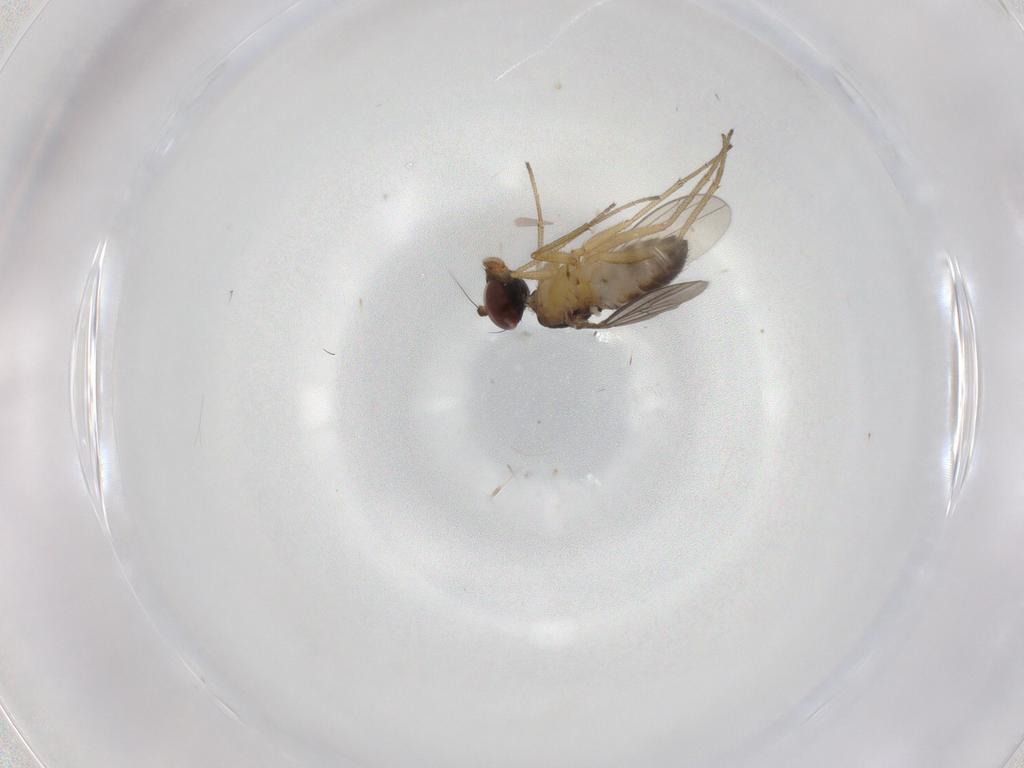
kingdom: Animalia
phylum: Arthropoda
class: Insecta
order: Diptera
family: Dolichopodidae
